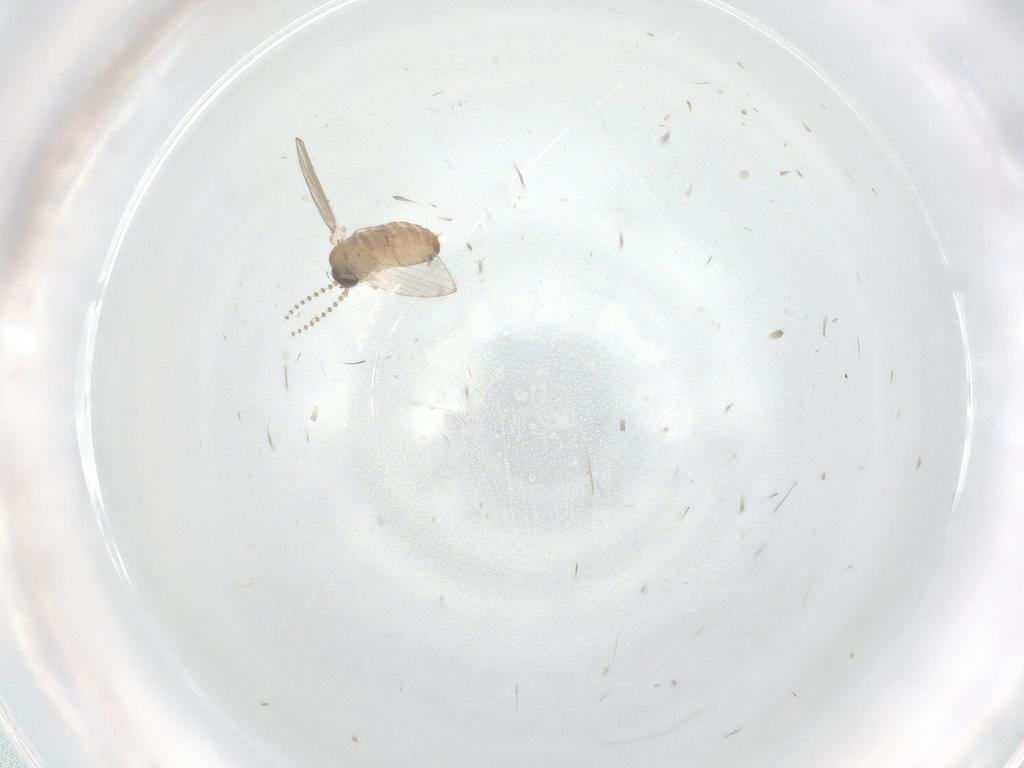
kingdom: Animalia
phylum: Arthropoda
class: Insecta
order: Diptera
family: Psychodidae
